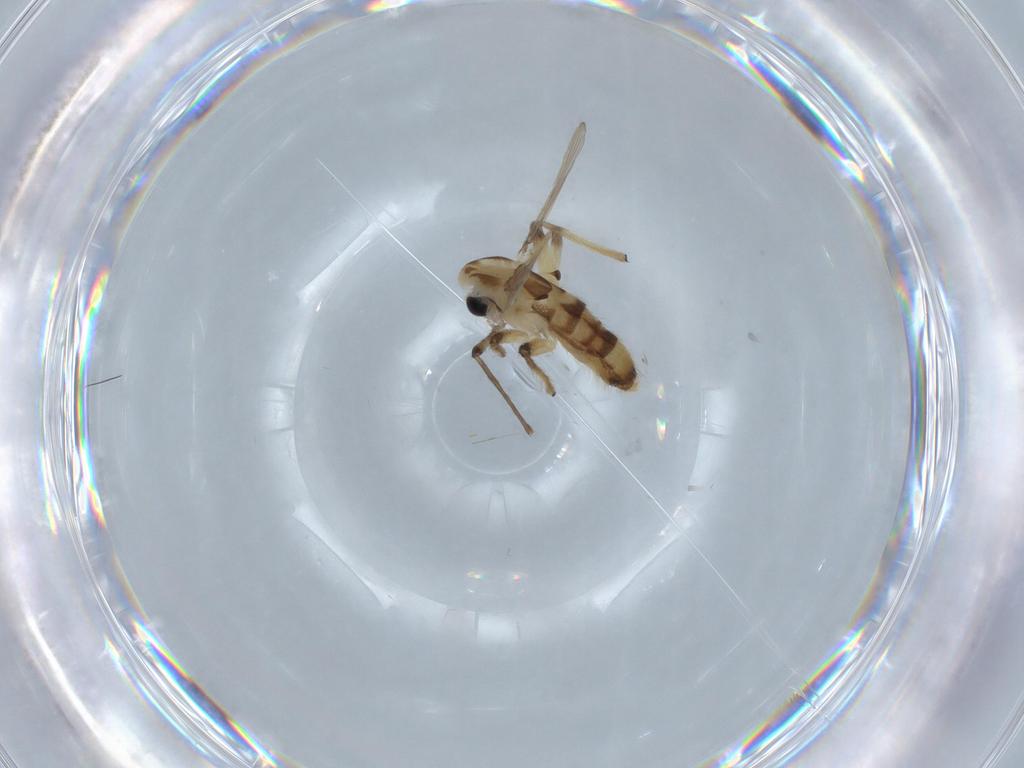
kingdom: Animalia
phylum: Arthropoda
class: Insecta
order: Diptera
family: Chironomidae
